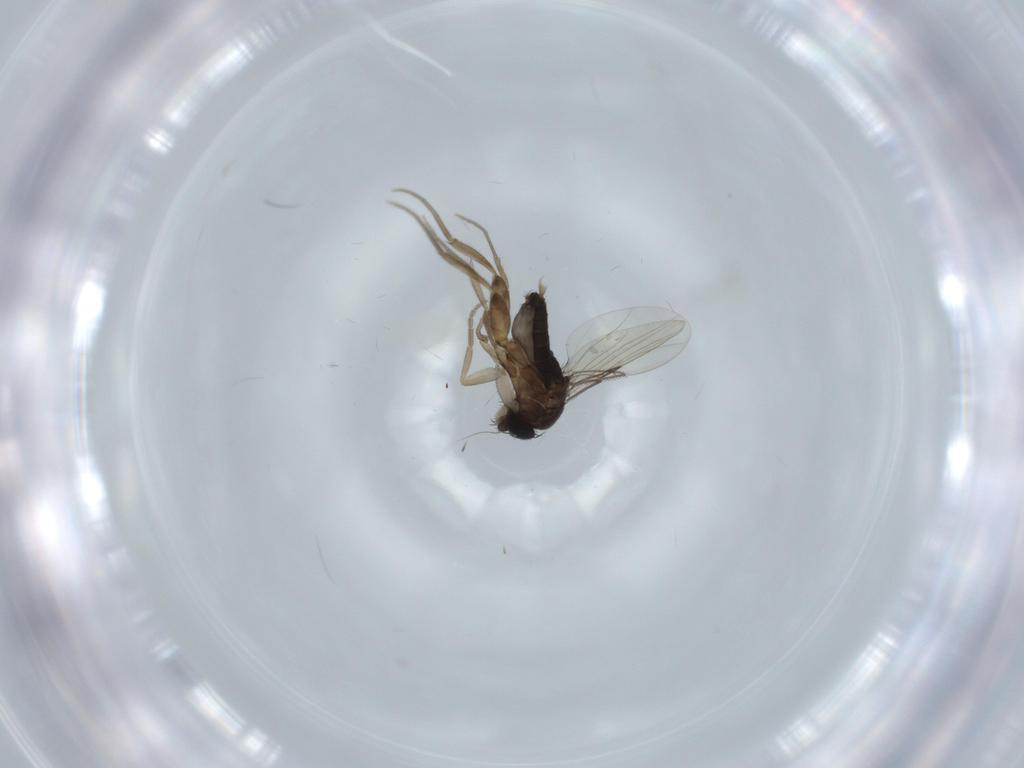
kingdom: Animalia
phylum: Arthropoda
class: Insecta
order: Diptera
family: Phoridae
